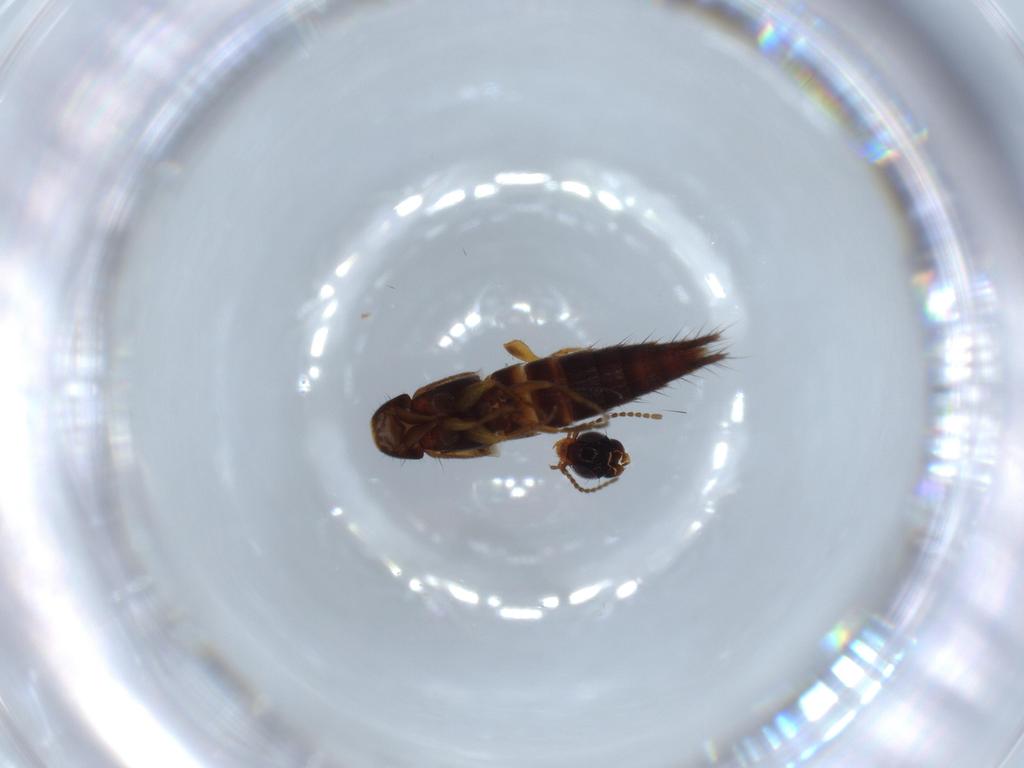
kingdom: Animalia
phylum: Arthropoda
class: Insecta
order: Coleoptera
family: Staphylinidae
